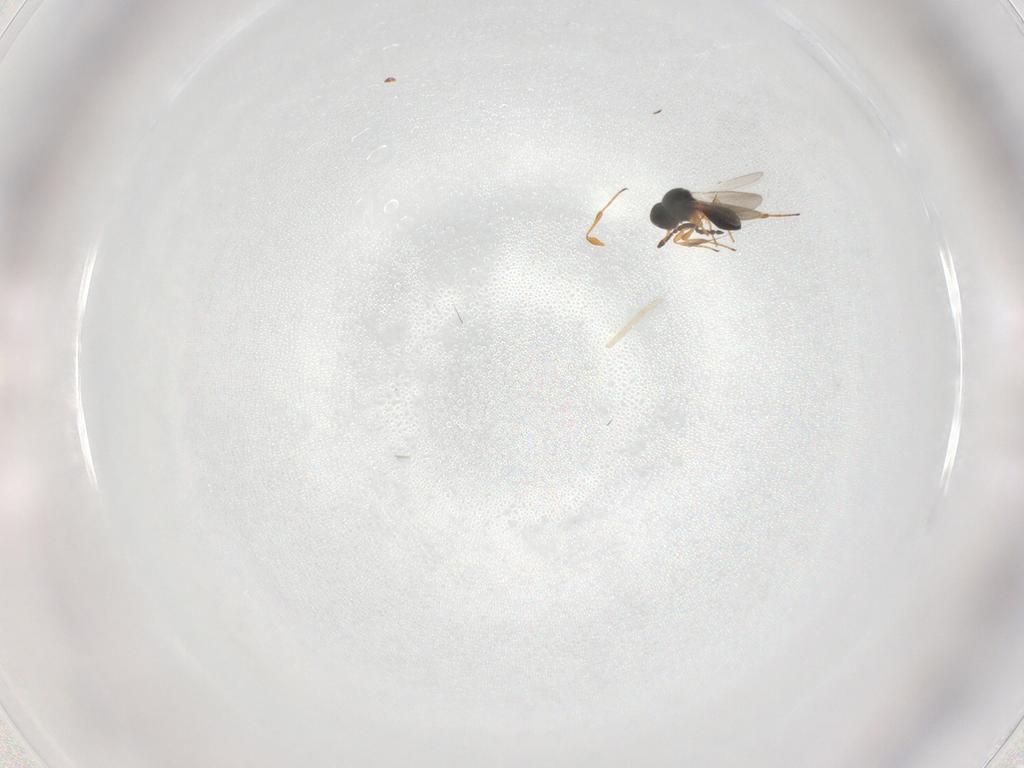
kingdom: Animalia
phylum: Arthropoda
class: Insecta
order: Hymenoptera
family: Platygastridae
